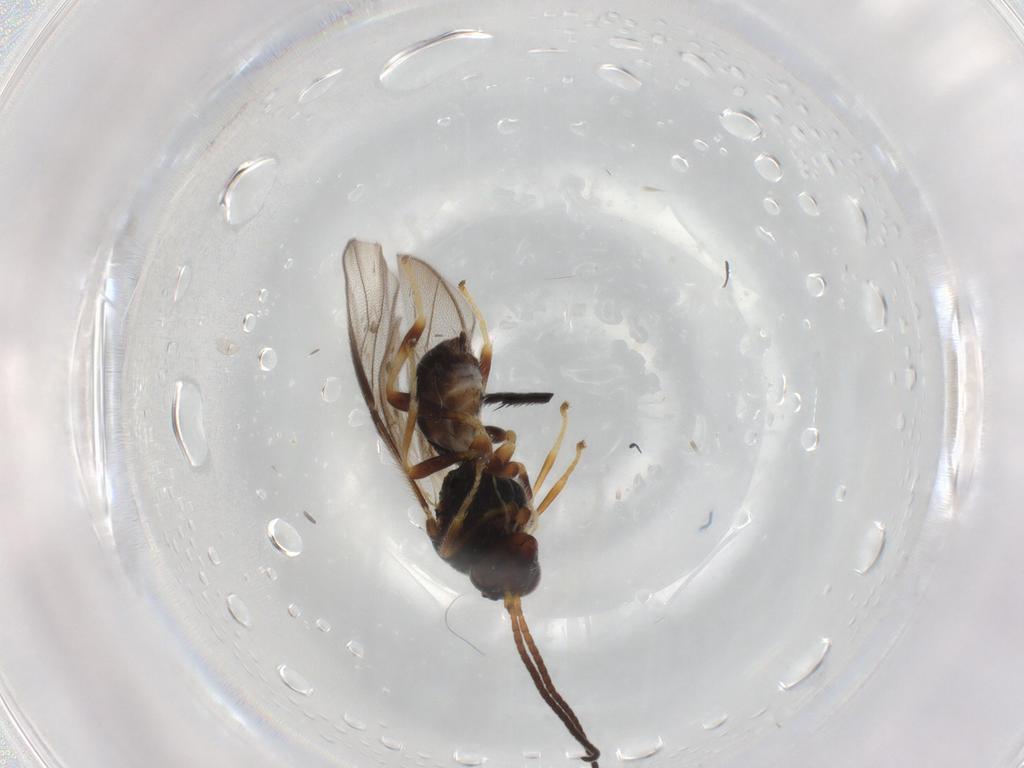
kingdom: Animalia
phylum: Arthropoda
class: Insecta
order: Hymenoptera
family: Braconidae
